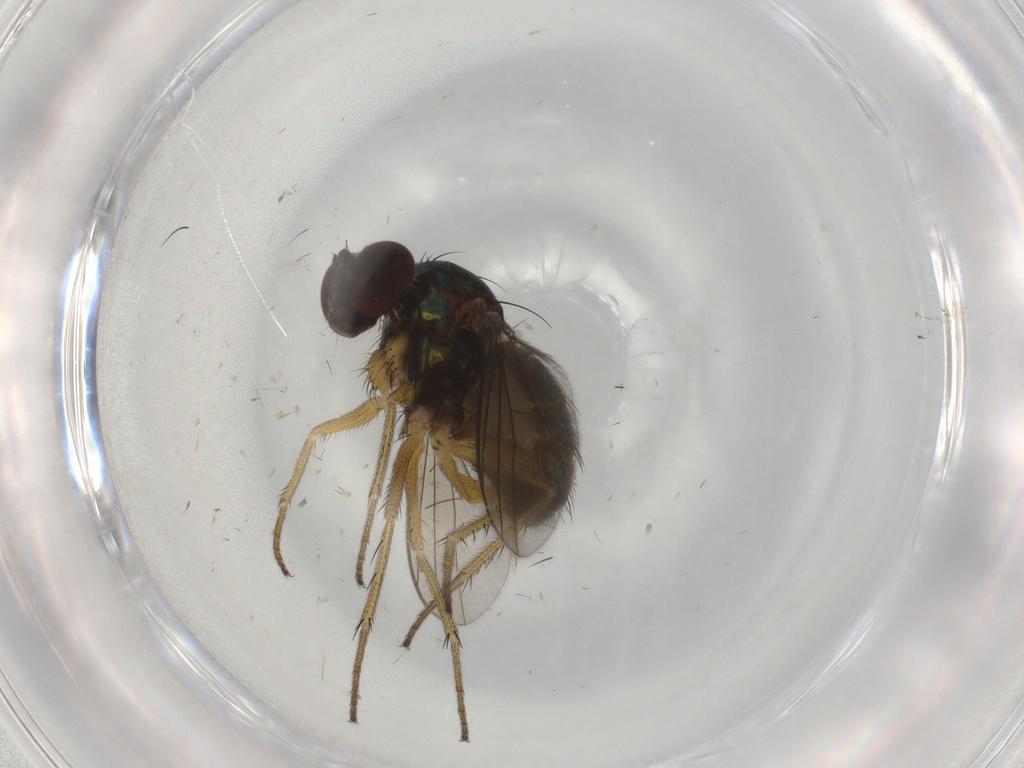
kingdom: Animalia
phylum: Arthropoda
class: Insecta
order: Diptera
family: Dolichopodidae
